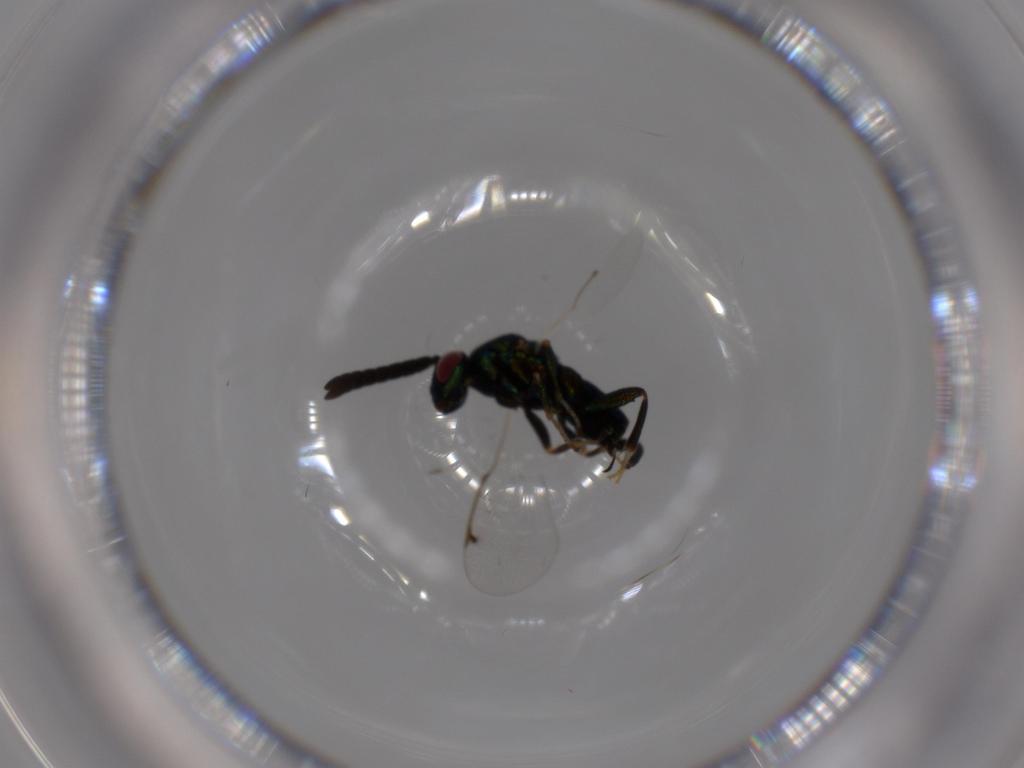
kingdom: Animalia
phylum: Arthropoda
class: Insecta
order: Hymenoptera
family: Torymidae
